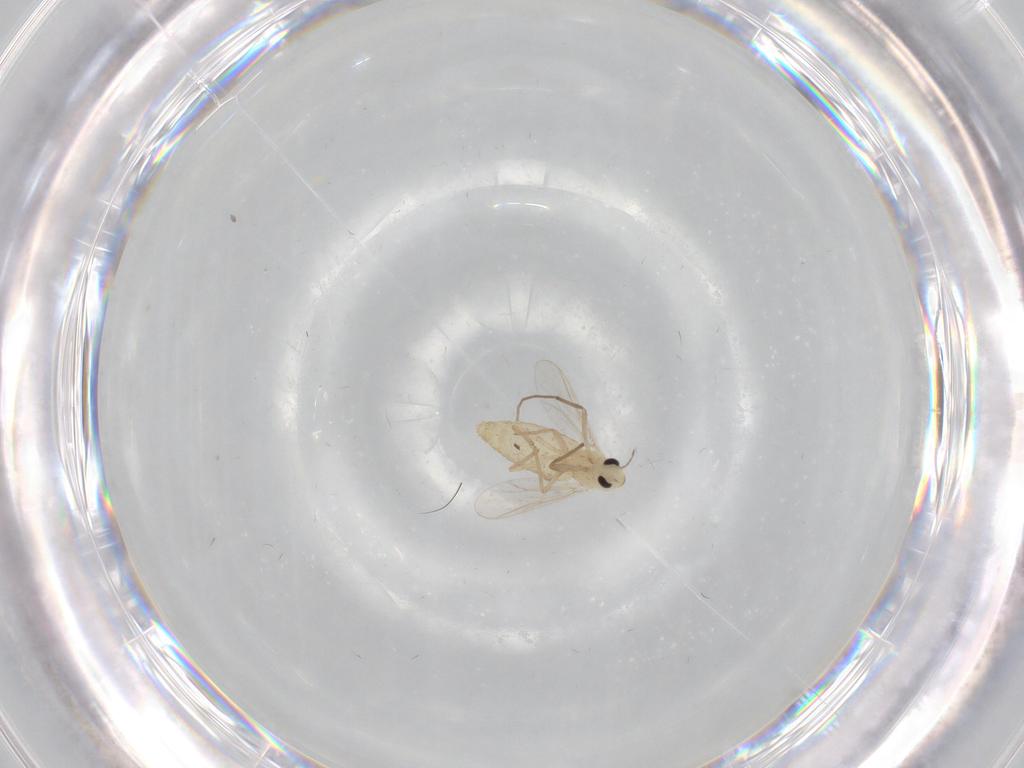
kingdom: Animalia
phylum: Arthropoda
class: Insecta
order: Diptera
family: Chironomidae
